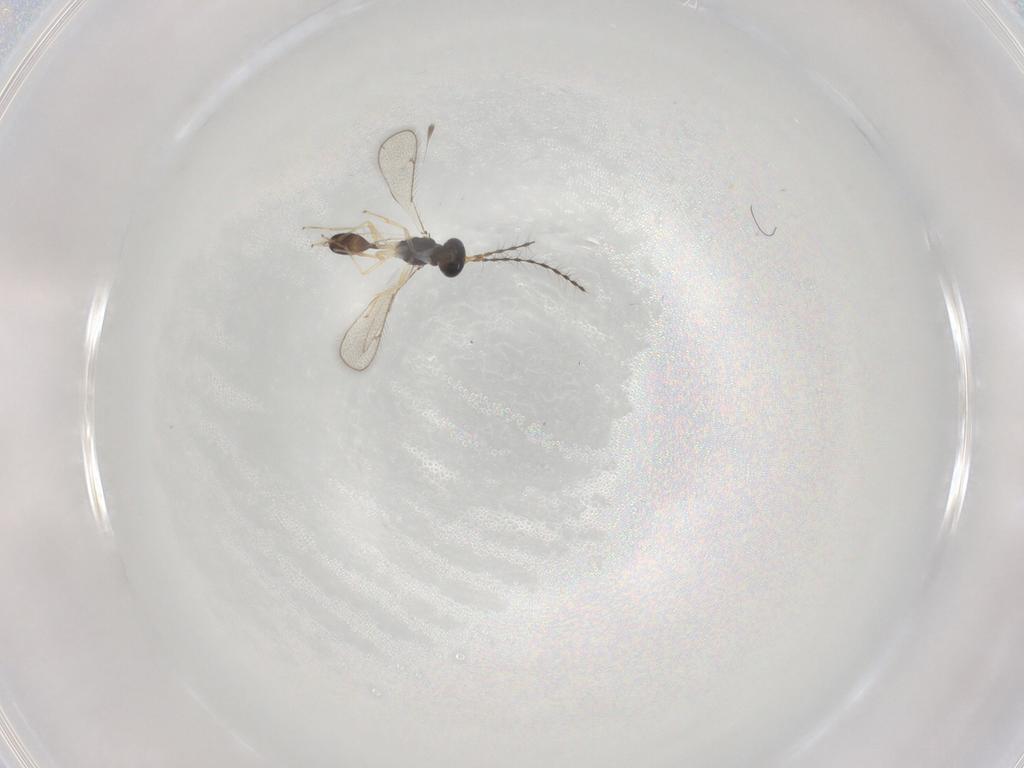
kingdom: Animalia
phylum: Arthropoda
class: Insecta
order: Hymenoptera
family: Diparidae
